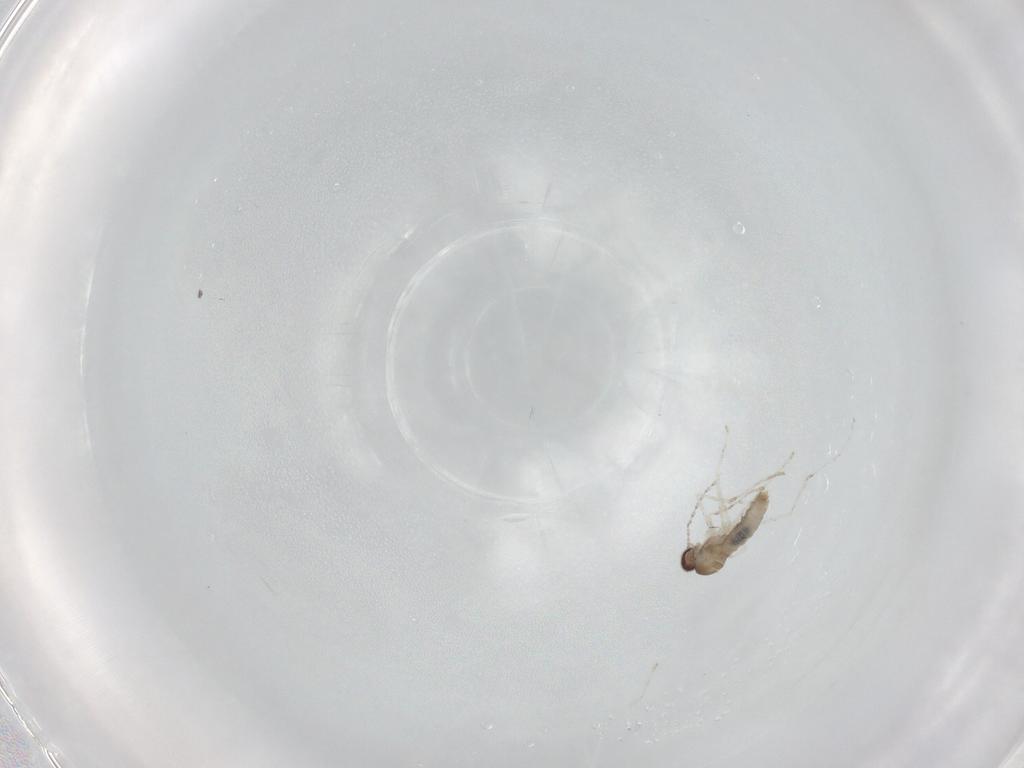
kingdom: Animalia
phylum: Arthropoda
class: Insecta
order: Diptera
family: Cecidomyiidae
